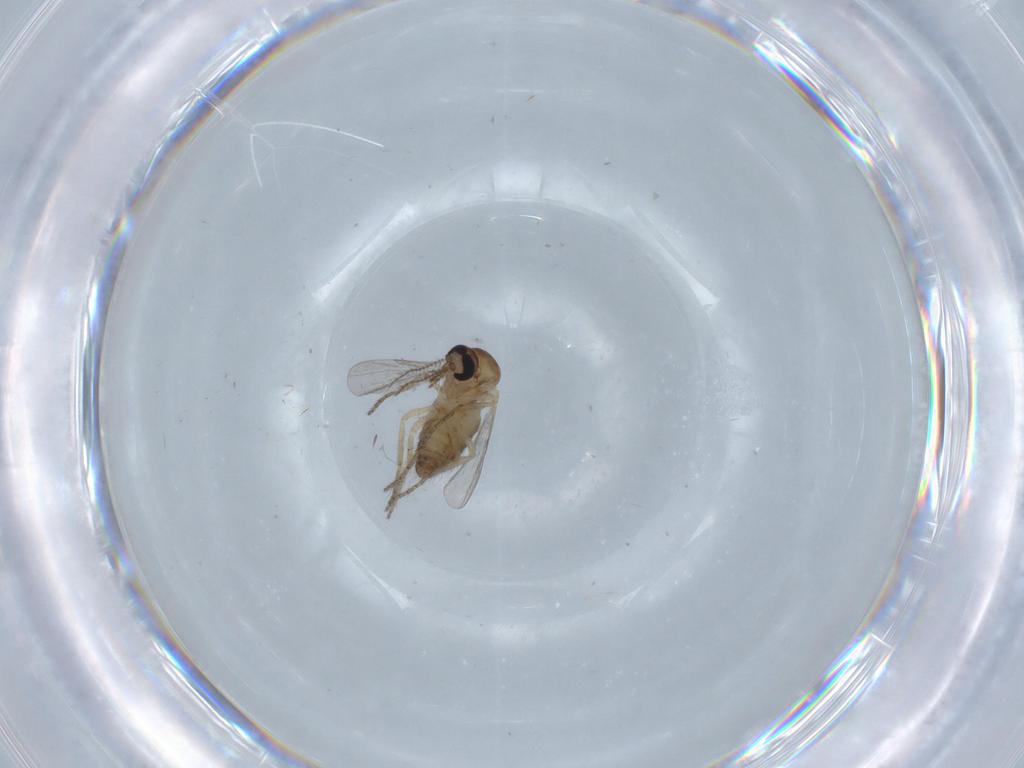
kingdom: Animalia
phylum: Arthropoda
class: Insecta
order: Diptera
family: Ceratopogonidae
